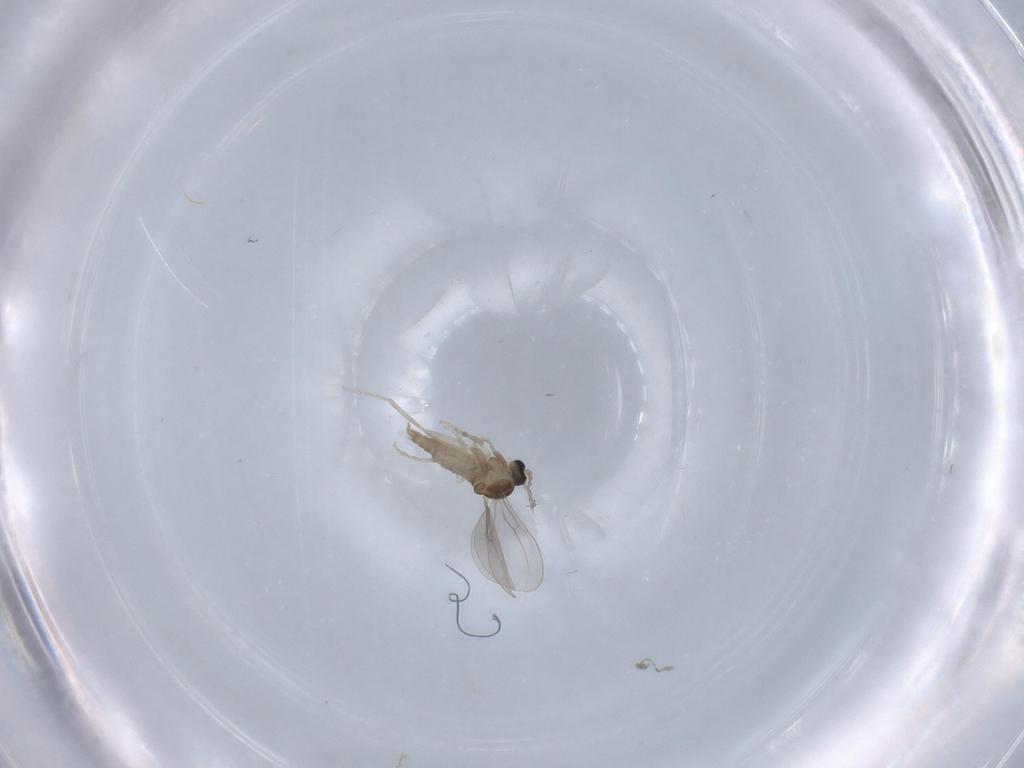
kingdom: Animalia
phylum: Arthropoda
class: Insecta
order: Diptera
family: Cecidomyiidae
